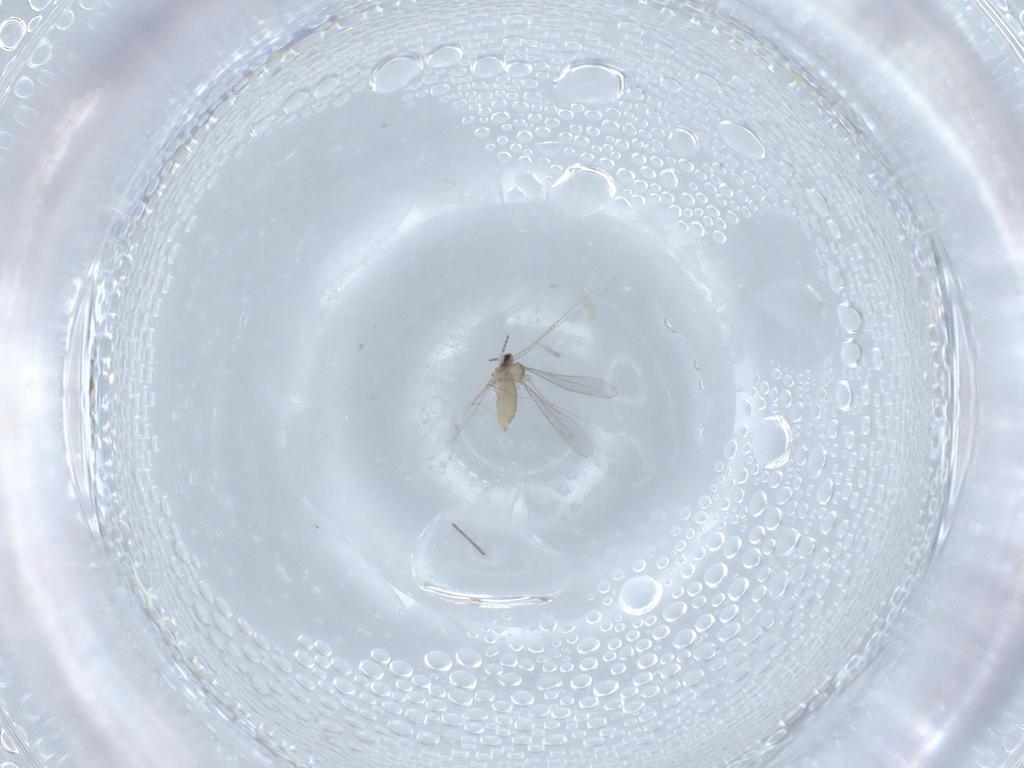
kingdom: Animalia
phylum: Arthropoda
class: Insecta
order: Diptera
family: Cecidomyiidae
